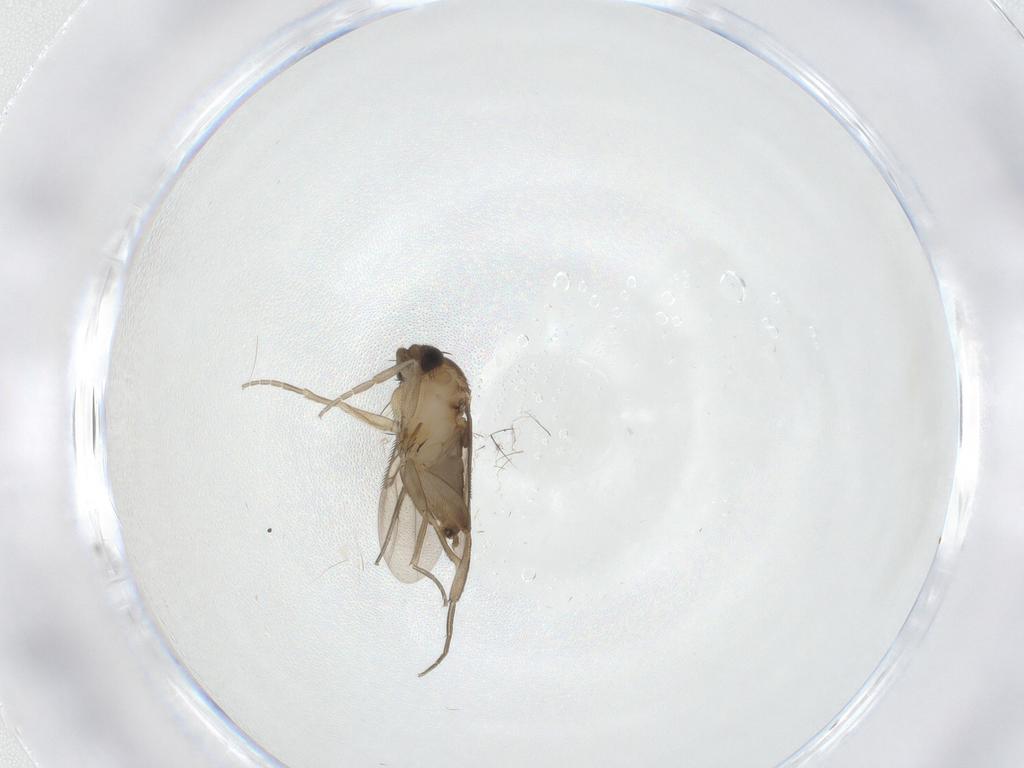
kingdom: Animalia
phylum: Arthropoda
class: Insecta
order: Diptera
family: Phoridae
